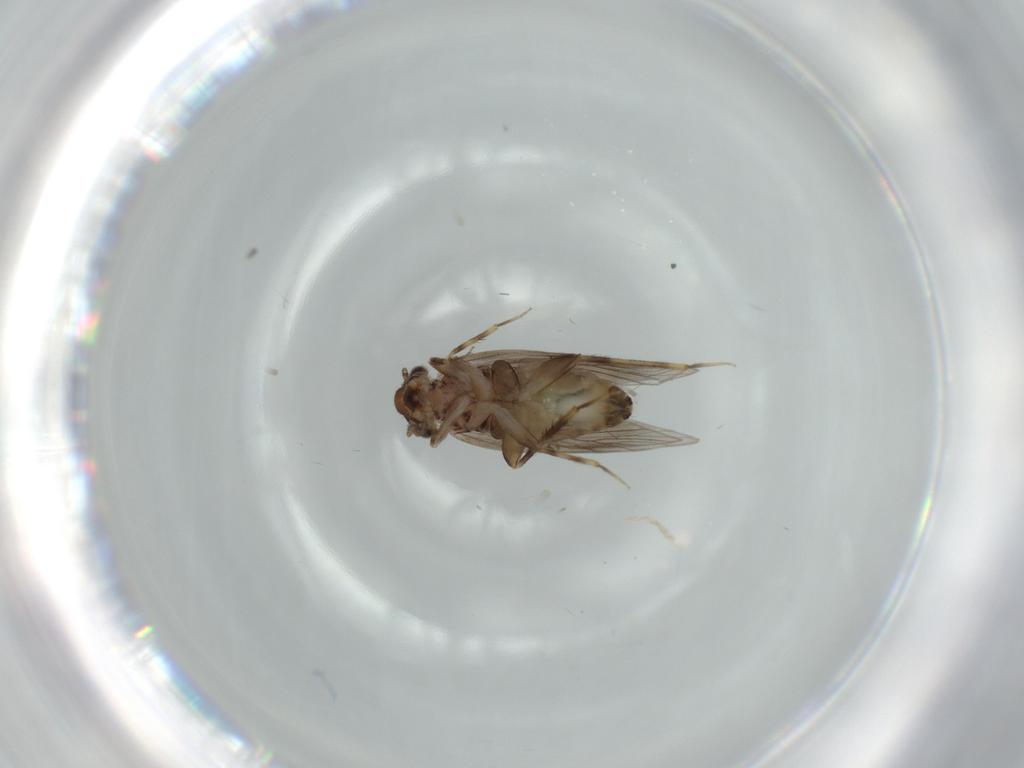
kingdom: Animalia
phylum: Arthropoda
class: Insecta
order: Psocodea
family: Lepidopsocidae
